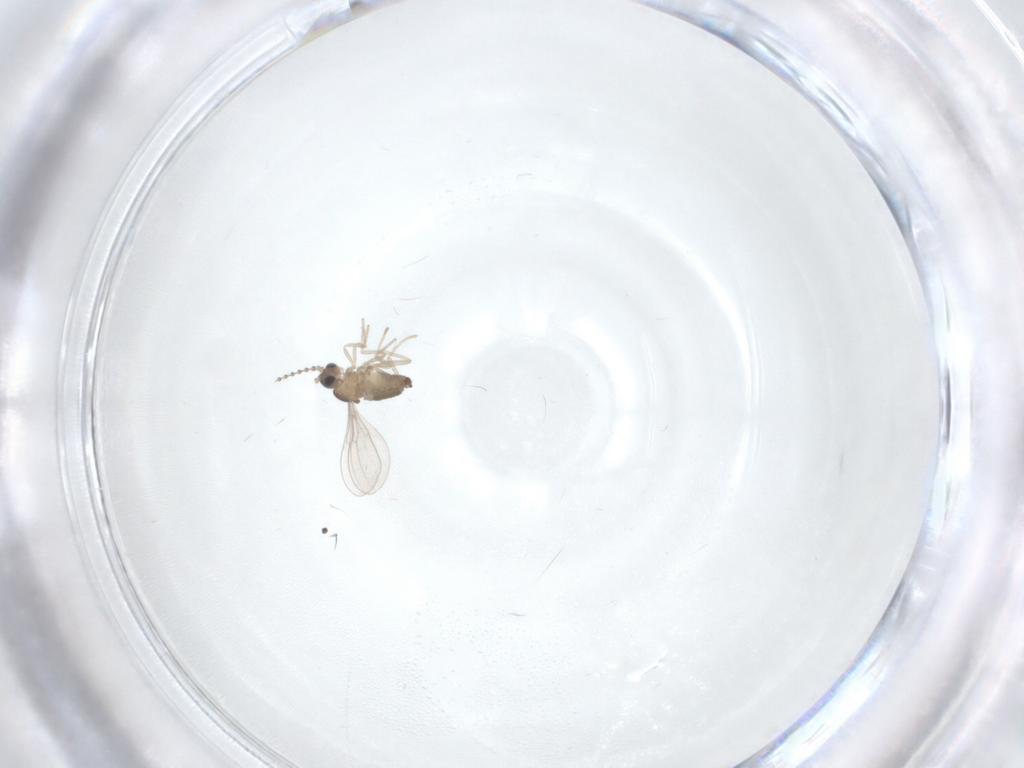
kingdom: Animalia
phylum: Arthropoda
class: Insecta
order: Diptera
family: Cecidomyiidae
